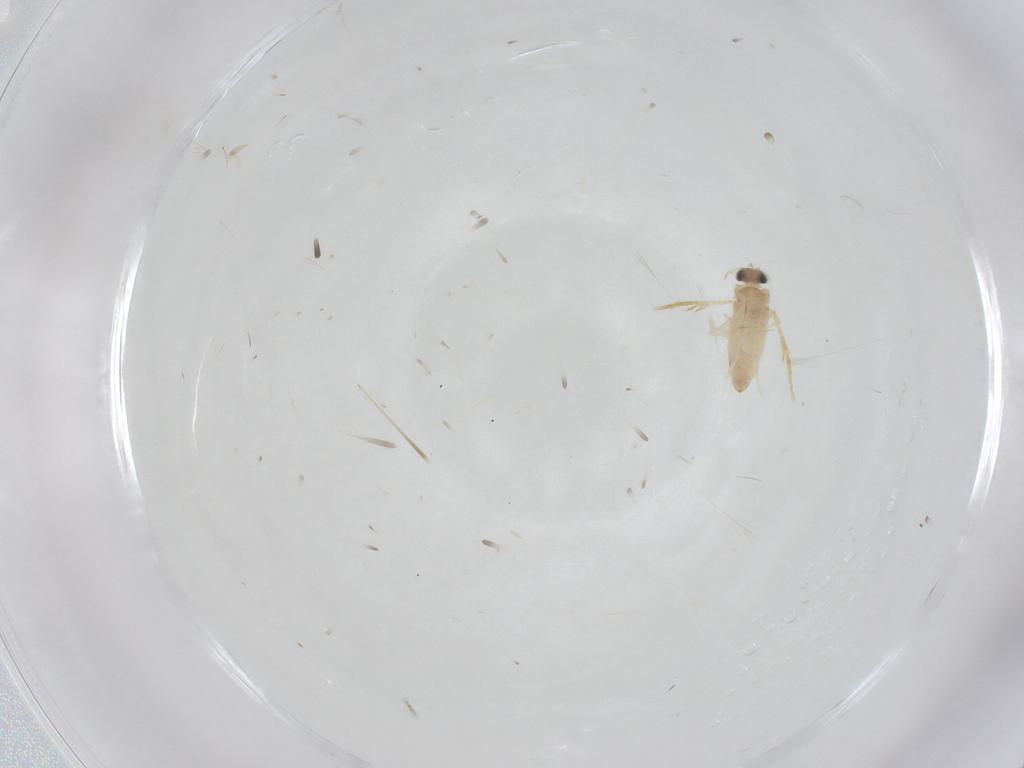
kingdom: Animalia
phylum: Arthropoda
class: Insecta
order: Lepidoptera
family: Crambidae
